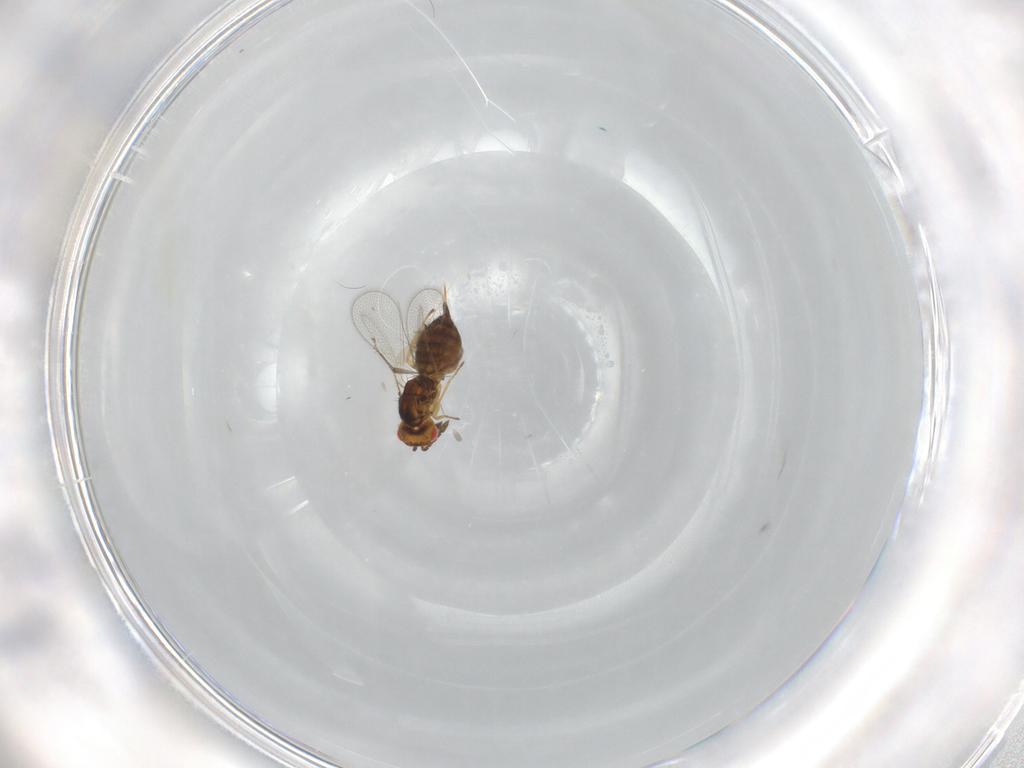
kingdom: Animalia
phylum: Arthropoda
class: Insecta
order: Hymenoptera
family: Eulophidae
